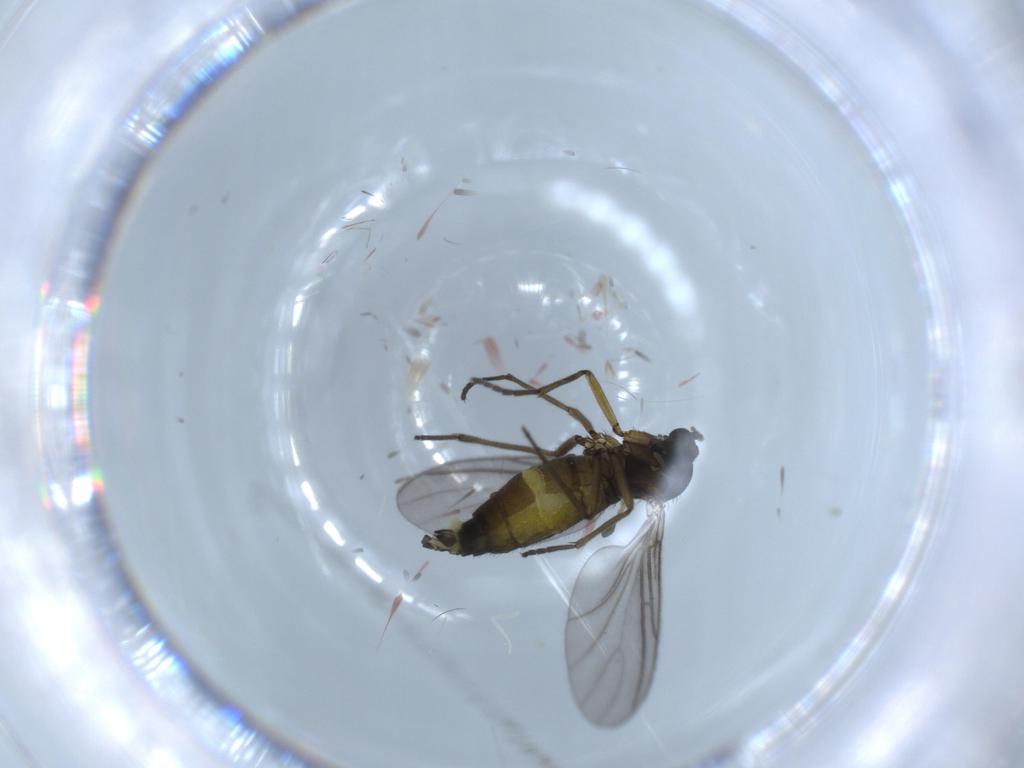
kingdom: Animalia
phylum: Arthropoda
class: Insecta
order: Diptera
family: Sciaridae
